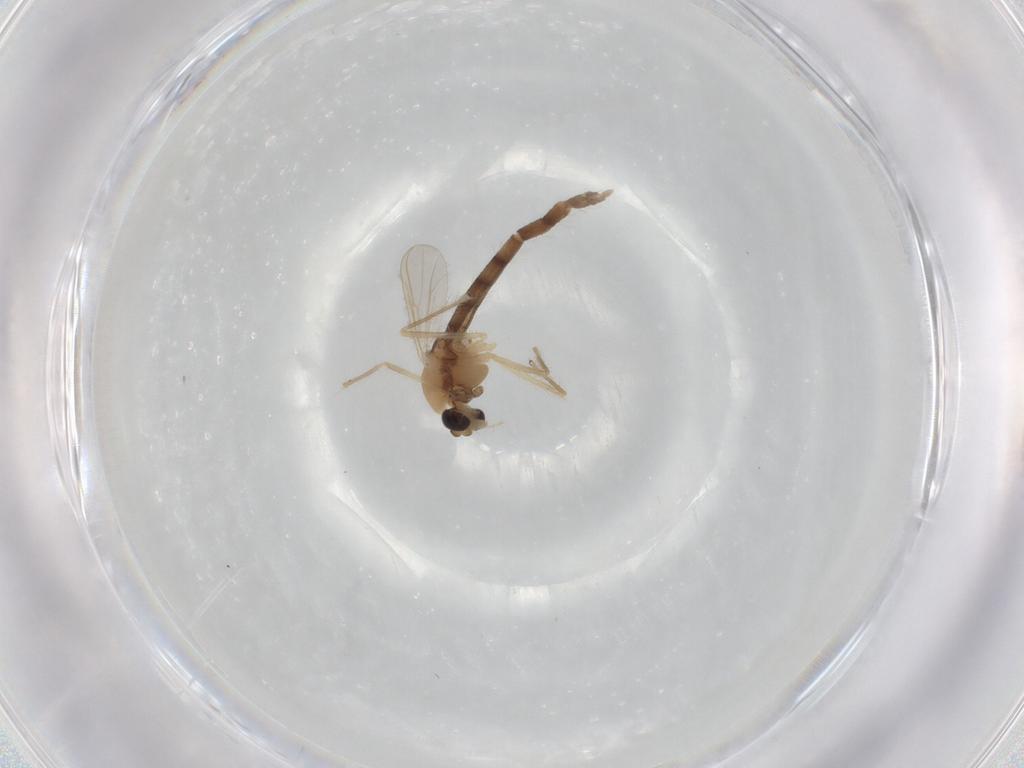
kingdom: Animalia
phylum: Arthropoda
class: Insecta
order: Diptera
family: Chironomidae
